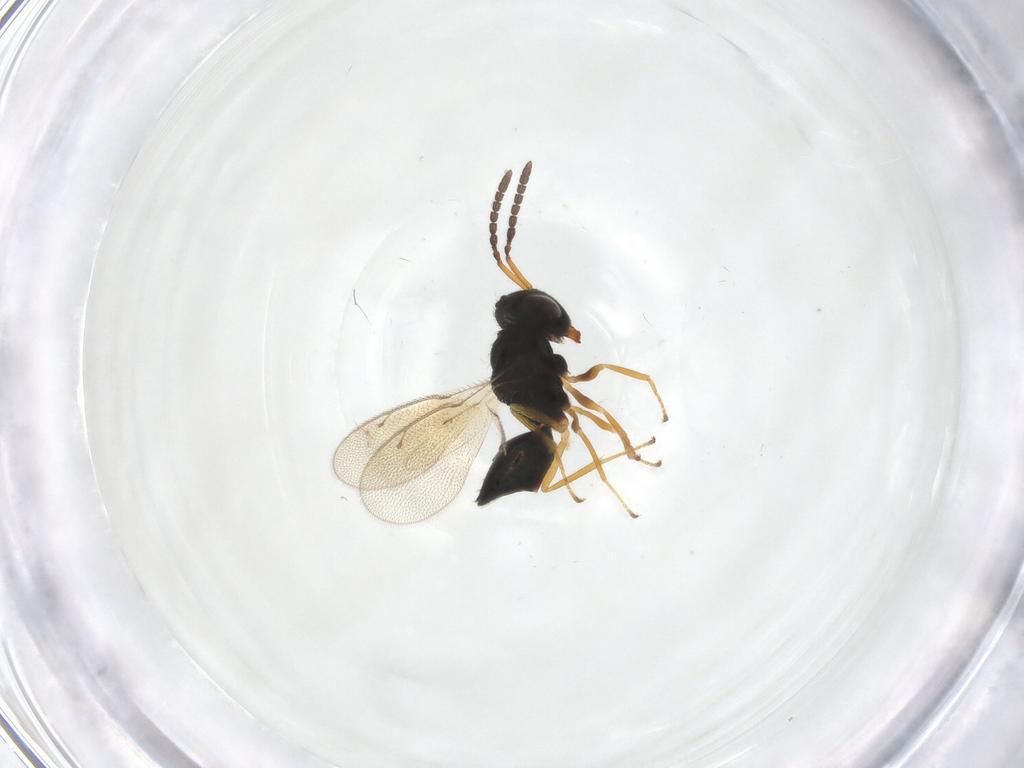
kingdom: Animalia
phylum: Arthropoda
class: Insecta
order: Hymenoptera
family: Pteromalidae
